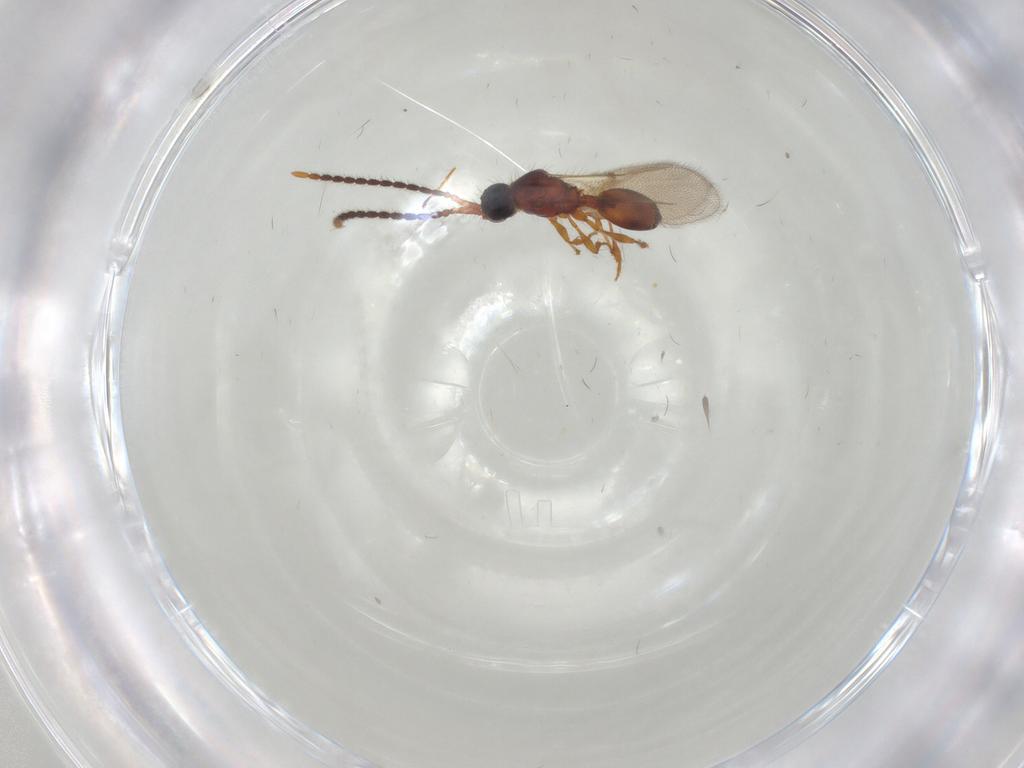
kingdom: Animalia
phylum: Arthropoda
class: Insecta
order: Hymenoptera
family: Diapriidae
